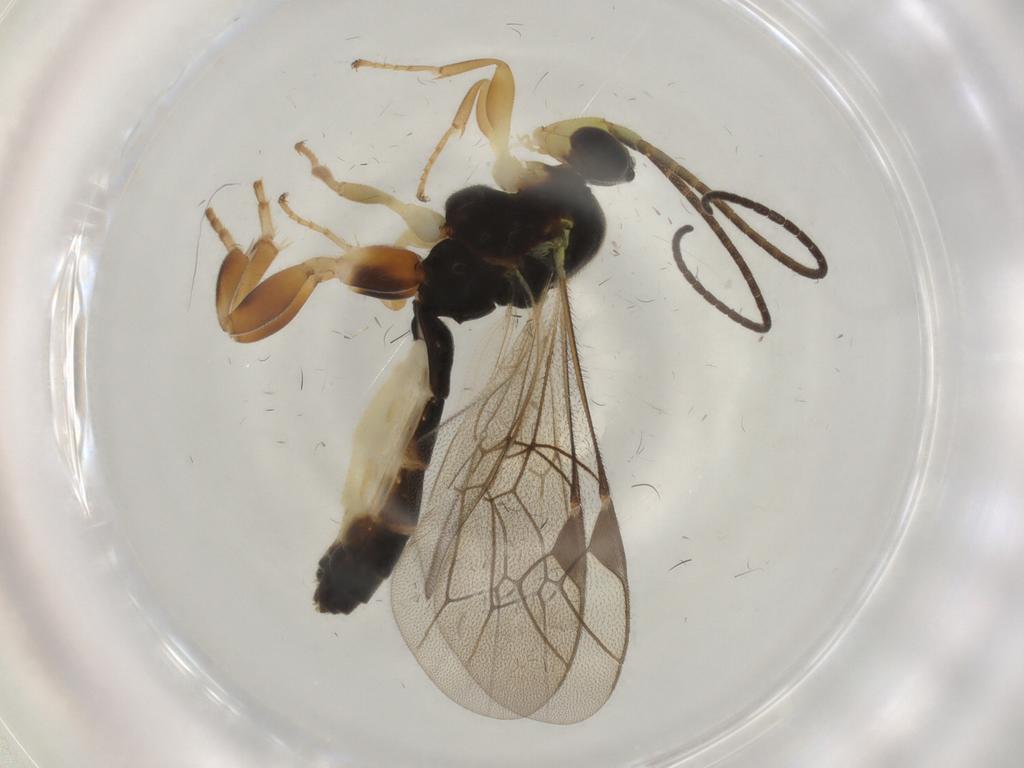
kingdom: Animalia
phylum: Arthropoda
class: Insecta
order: Hymenoptera
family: Ichneumonidae
